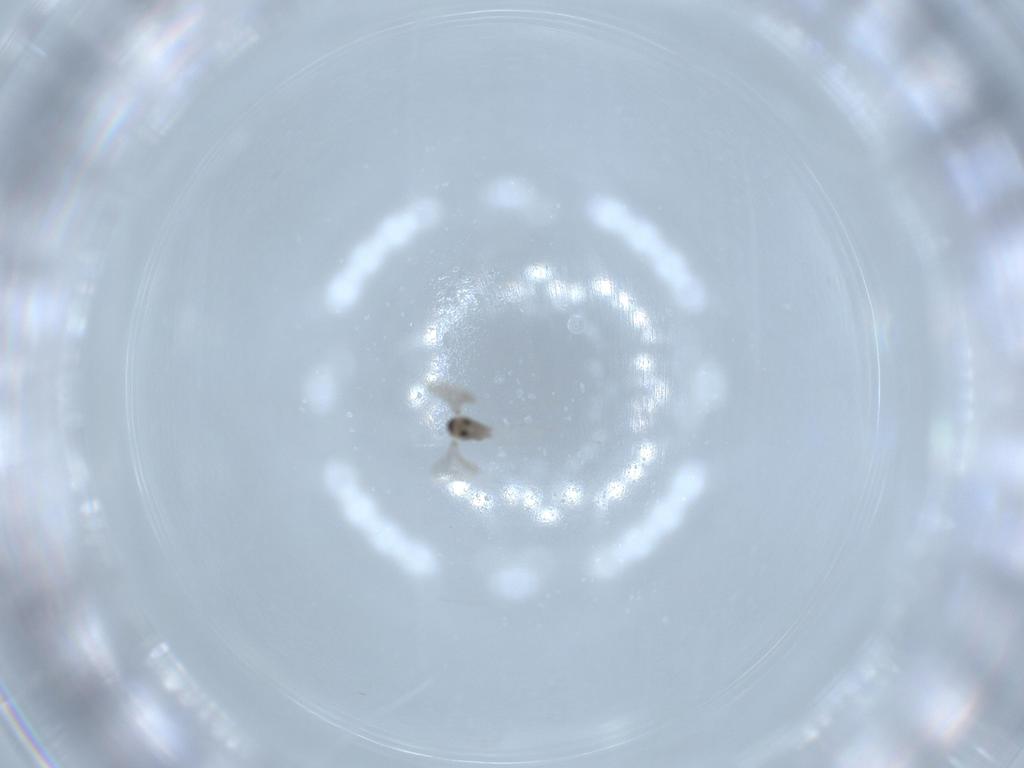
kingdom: Animalia
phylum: Arthropoda
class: Insecta
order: Diptera
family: Cecidomyiidae
